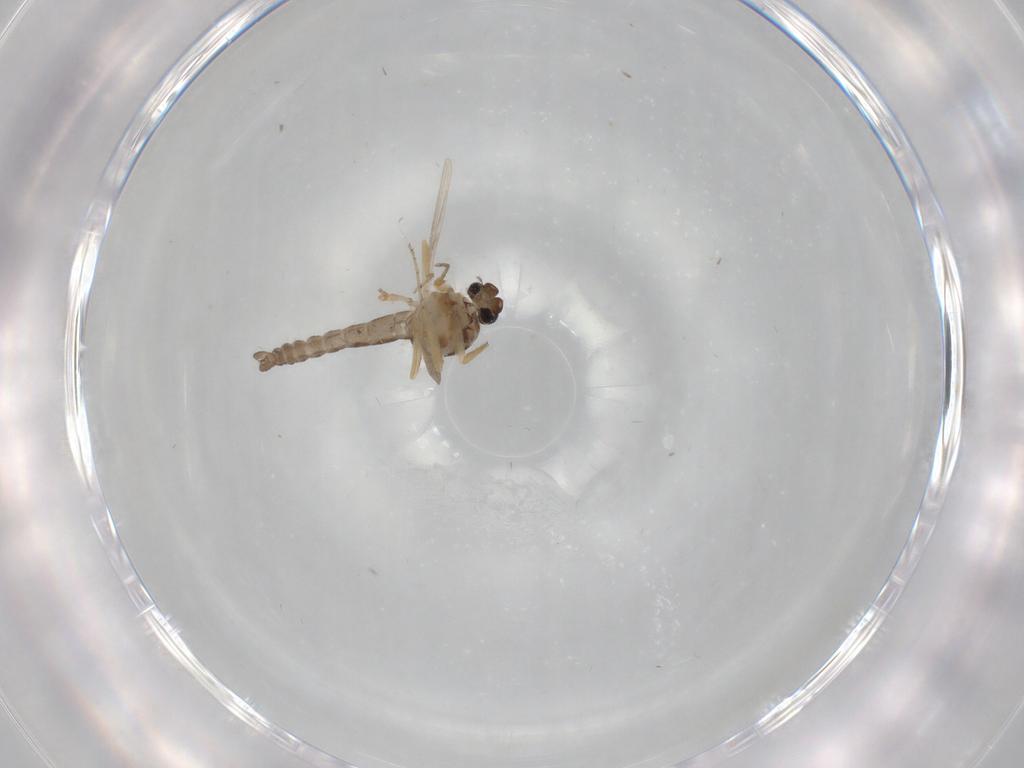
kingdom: Animalia
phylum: Arthropoda
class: Insecta
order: Diptera
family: Ceratopogonidae
